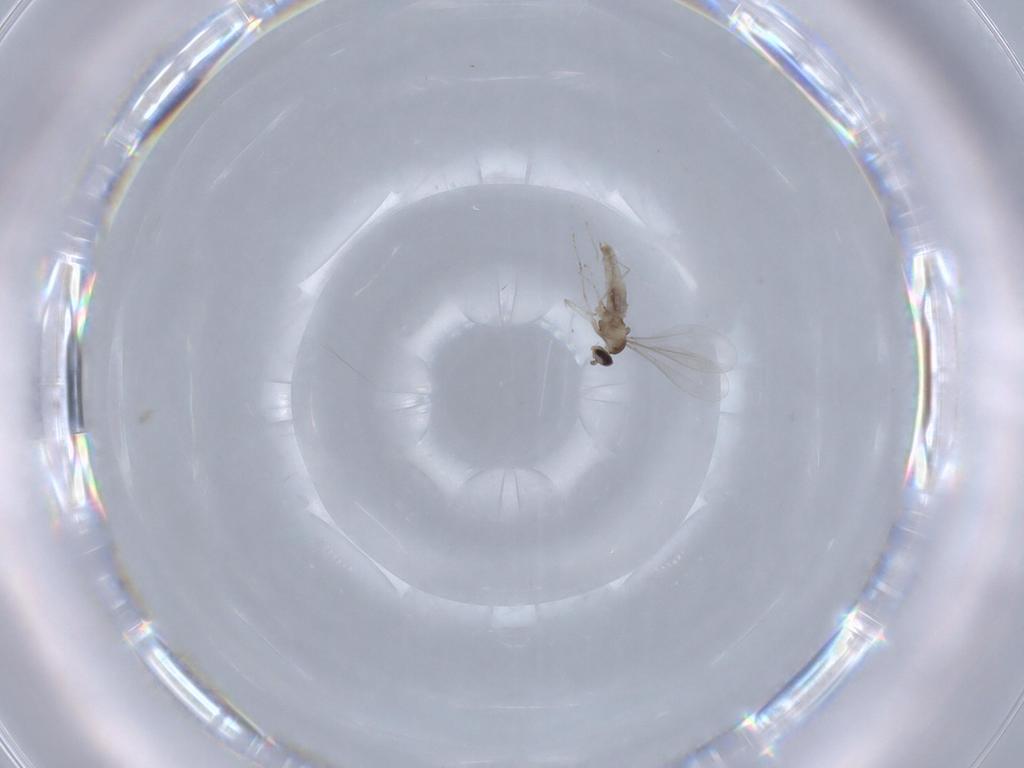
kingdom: Animalia
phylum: Arthropoda
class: Insecta
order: Diptera
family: Cecidomyiidae
